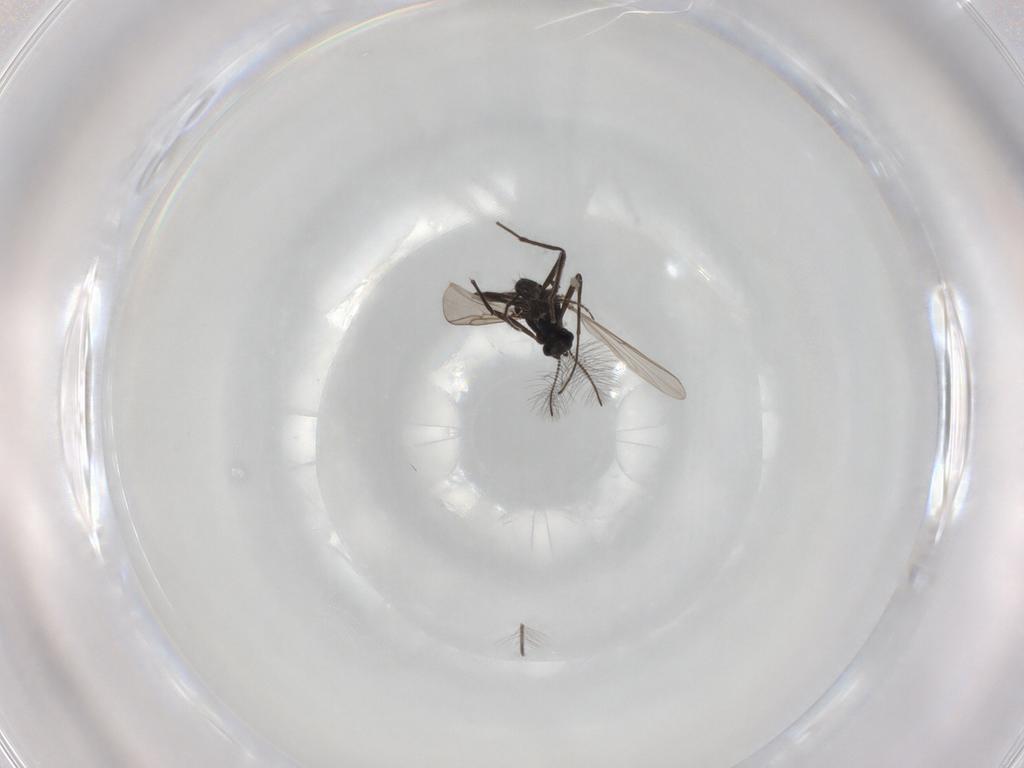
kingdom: Animalia
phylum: Arthropoda
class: Insecta
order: Diptera
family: Chironomidae
